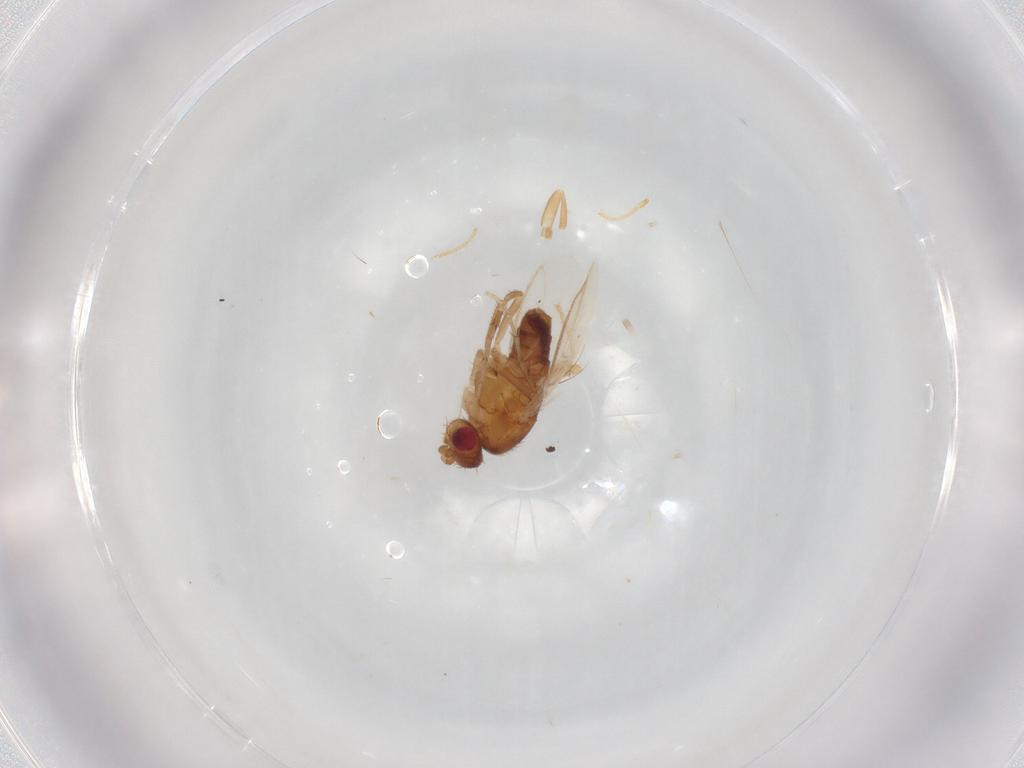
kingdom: Animalia
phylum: Arthropoda
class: Insecta
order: Diptera
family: Sphaeroceridae
